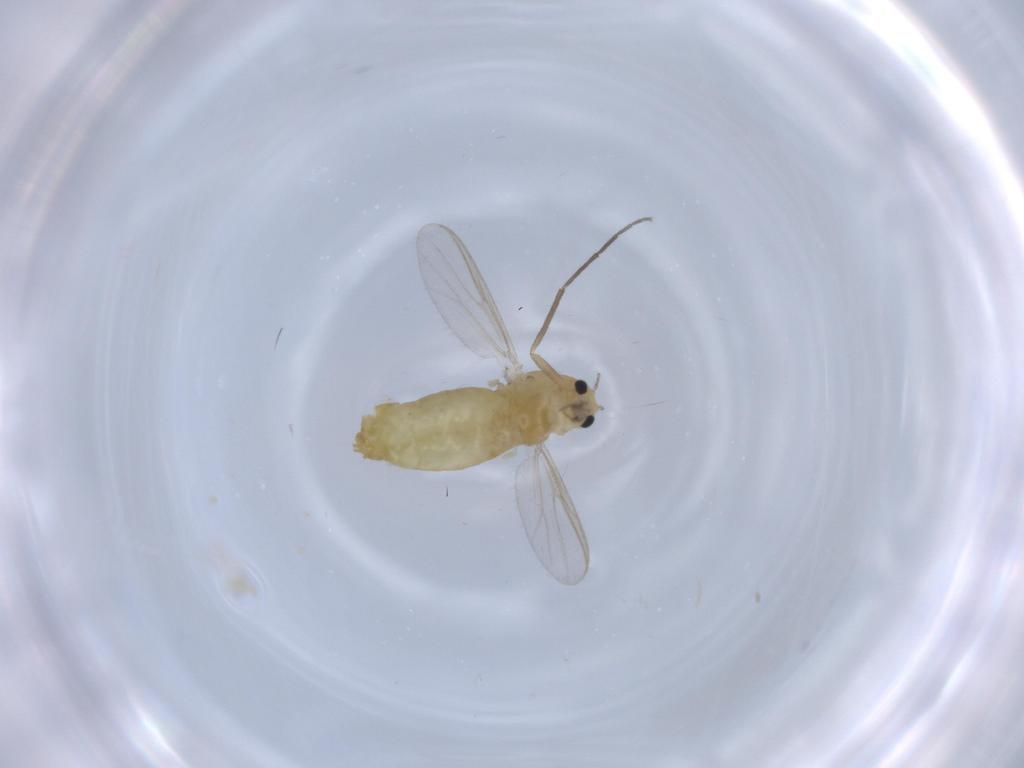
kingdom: Animalia
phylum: Arthropoda
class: Insecta
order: Diptera
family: Chironomidae
